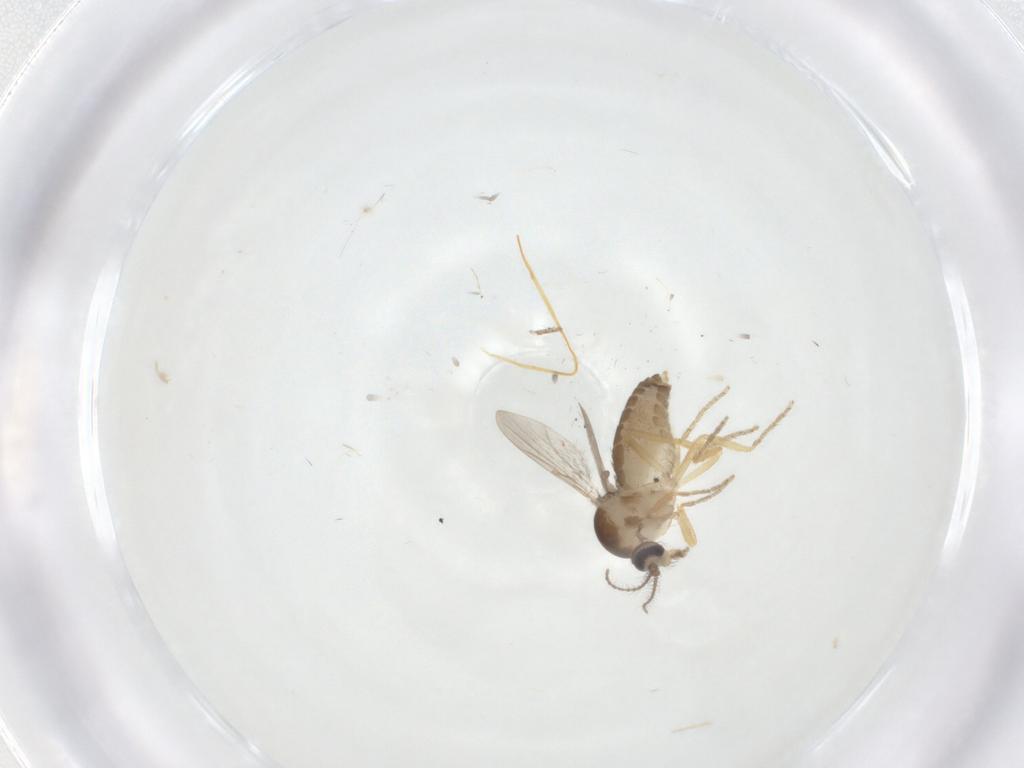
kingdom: Animalia
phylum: Arthropoda
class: Insecta
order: Diptera
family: Ceratopogonidae
